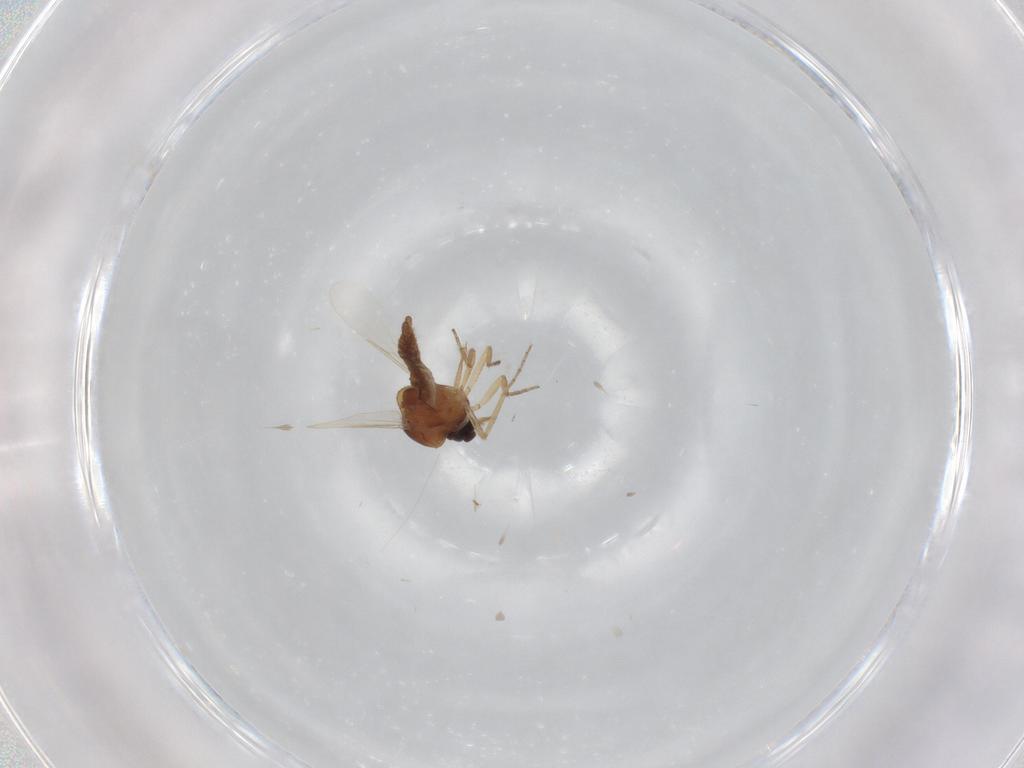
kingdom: Animalia
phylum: Arthropoda
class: Insecta
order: Diptera
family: Ceratopogonidae
